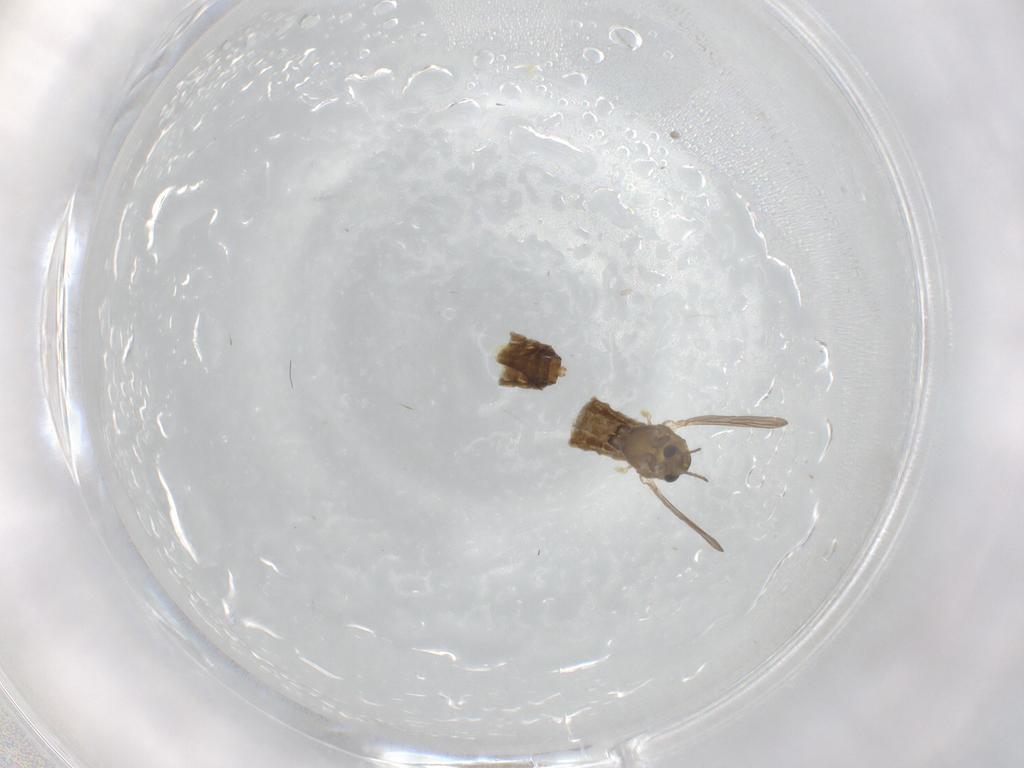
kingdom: Animalia
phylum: Arthropoda
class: Insecta
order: Diptera
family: Chironomidae
